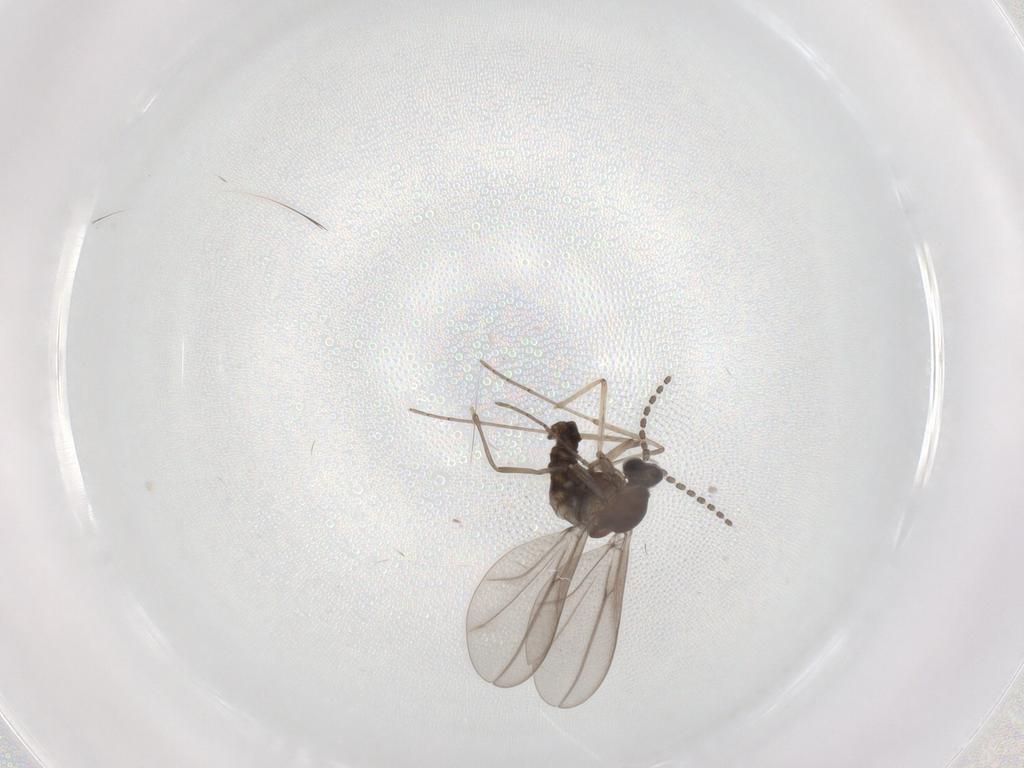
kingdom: Animalia
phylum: Arthropoda
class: Insecta
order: Diptera
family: Cecidomyiidae
